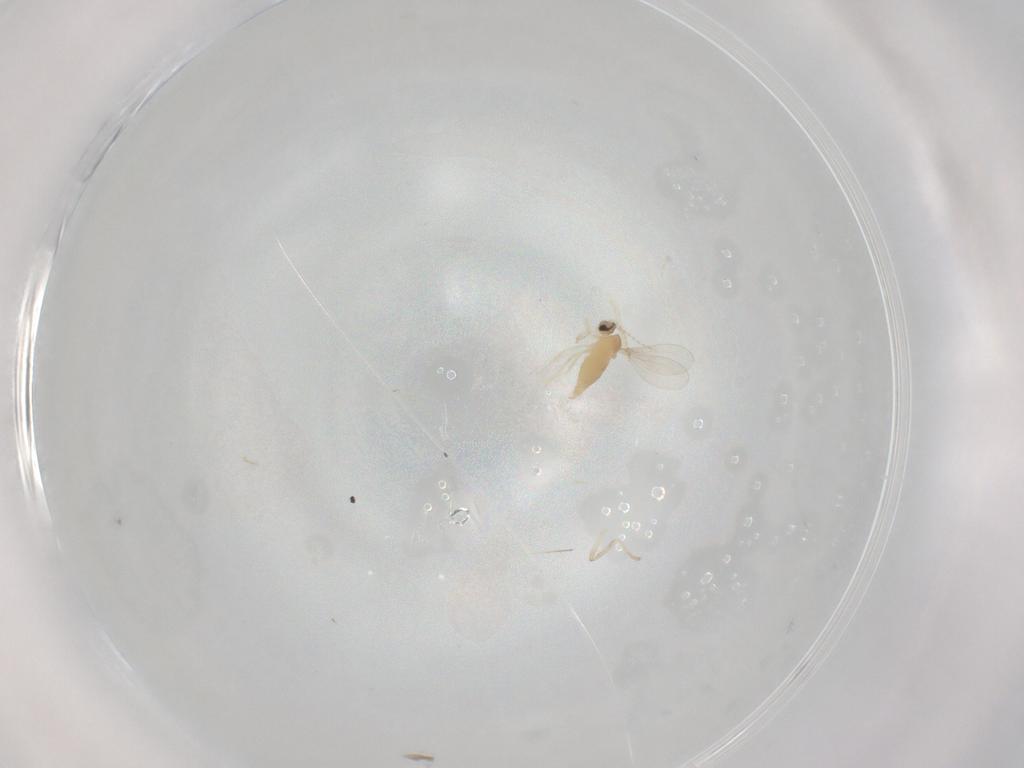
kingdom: Animalia
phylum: Arthropoda
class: Insecta
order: Diptera
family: Cecidomyiidae
